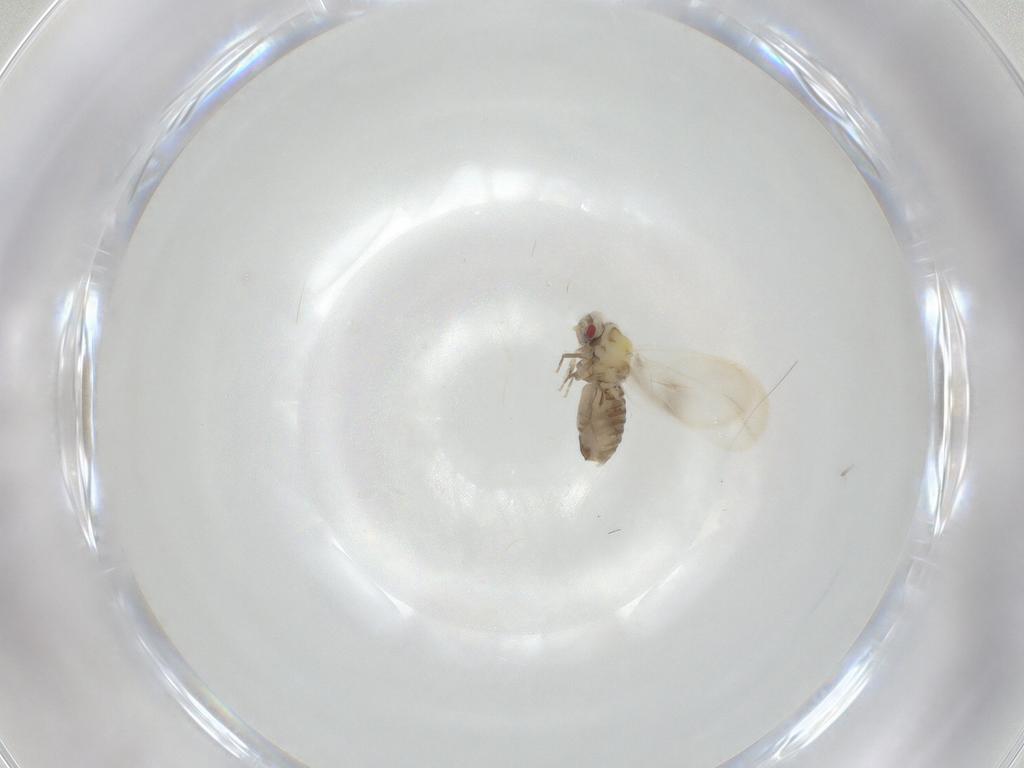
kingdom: Animalia
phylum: Arthropoda
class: Insecta
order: Hemiptera
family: Aleyrodidae
